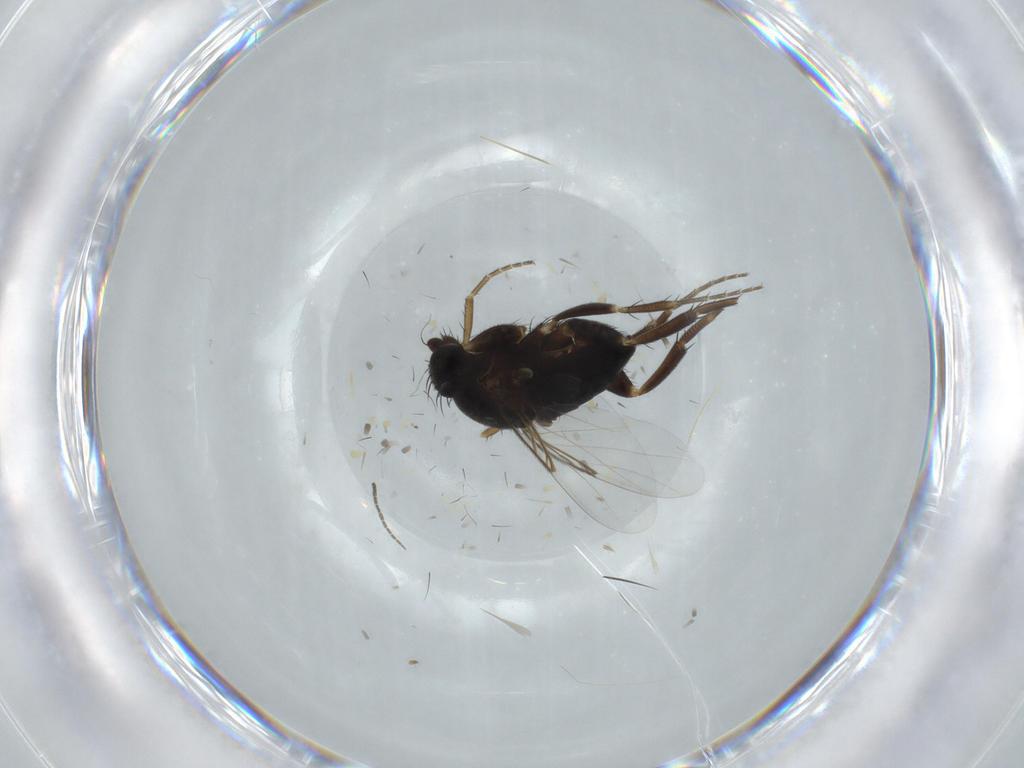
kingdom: Animalia
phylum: Arthropoda
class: Insecta
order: Diptera
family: Phoridae
